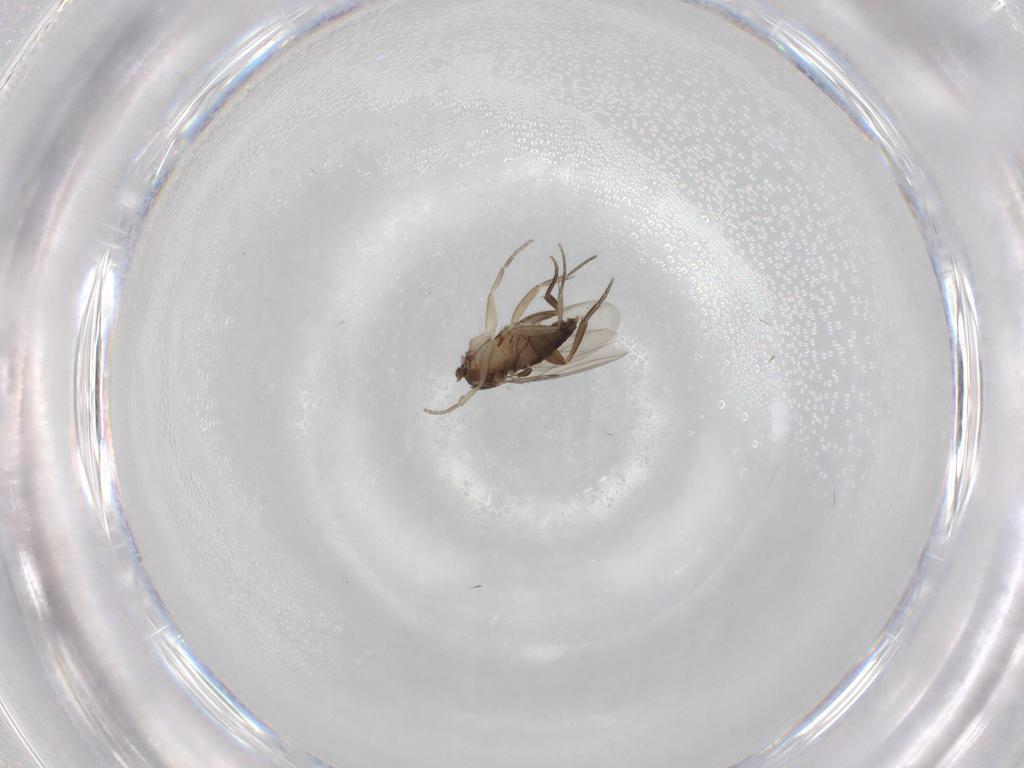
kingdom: Animalia
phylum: Arthropoda
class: Insecta
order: Diptera
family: Phoridae
